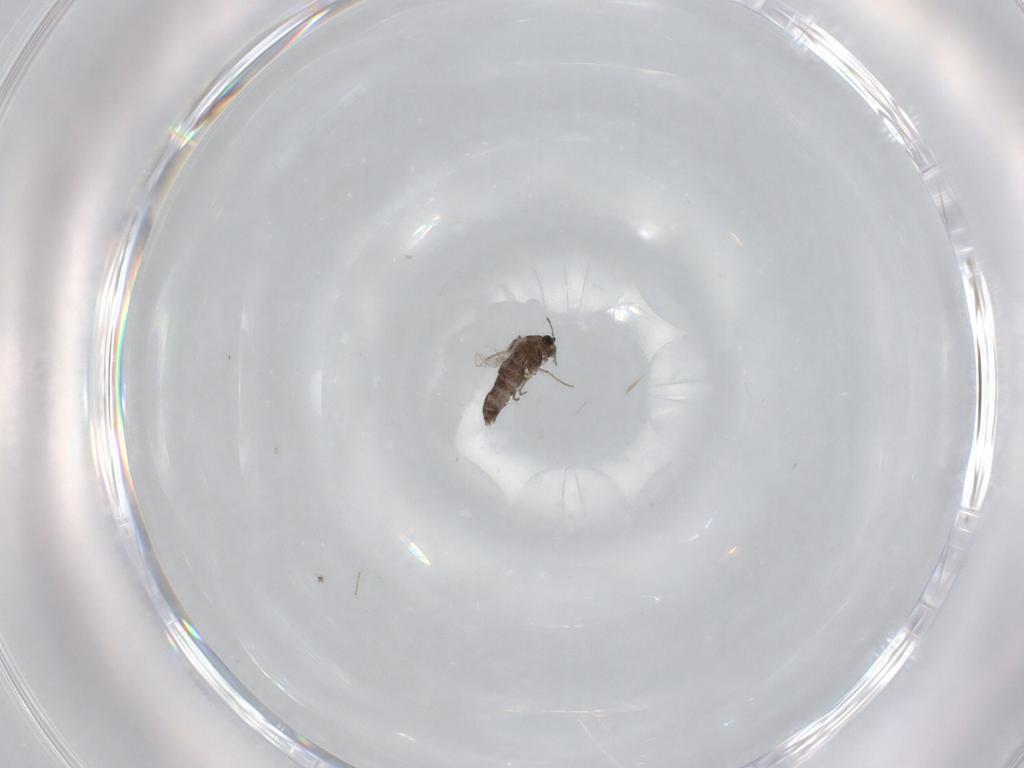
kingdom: Animalia
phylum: Arthropoda
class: Insecta
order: Diptera
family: Chironomidae
